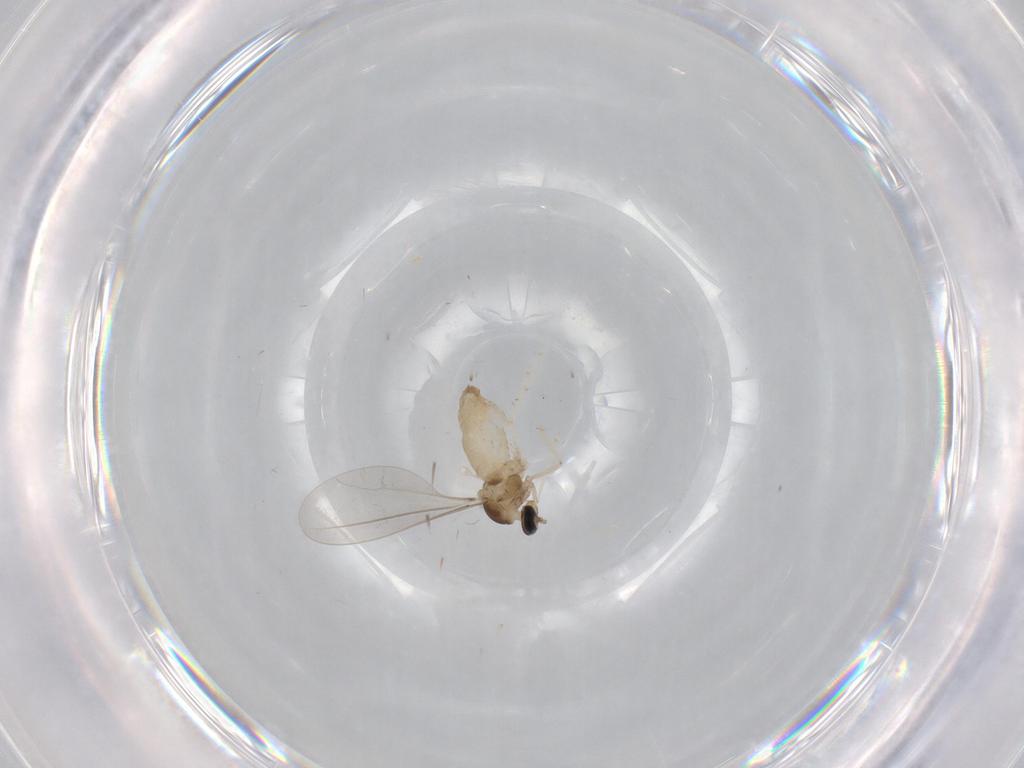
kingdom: Animalia
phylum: Arthropoda
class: Insecta
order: Diptera
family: Cecidomyiidae
